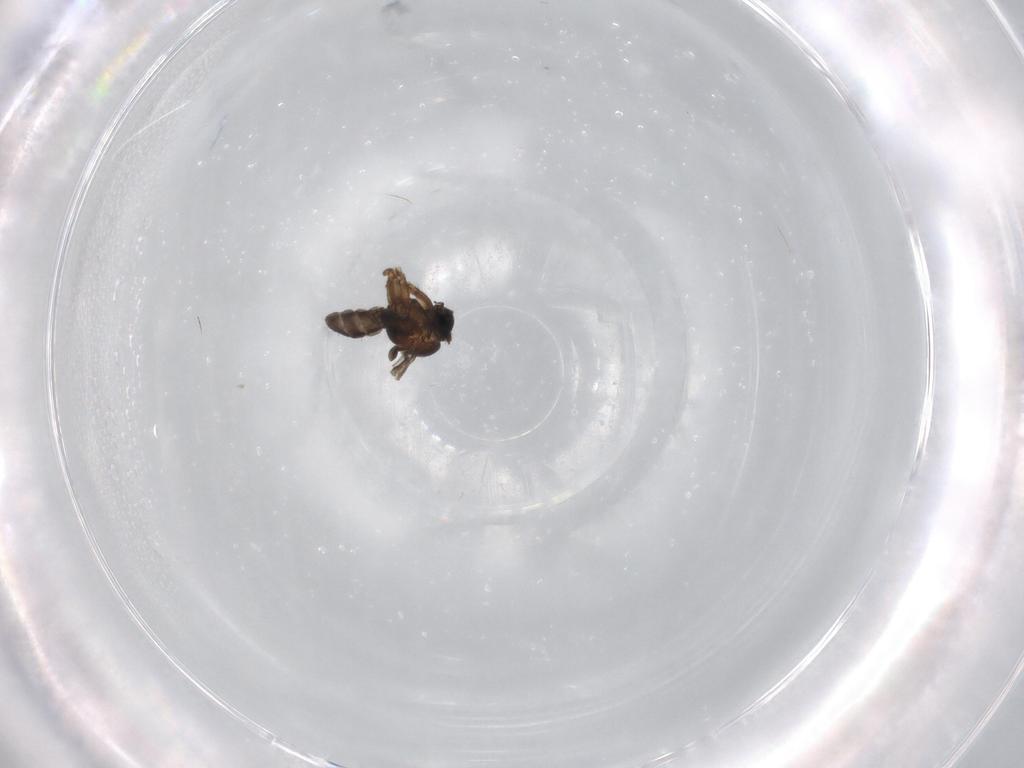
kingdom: Animalia
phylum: Arthropoda
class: Insecta
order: Diptera
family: Sciaridae
